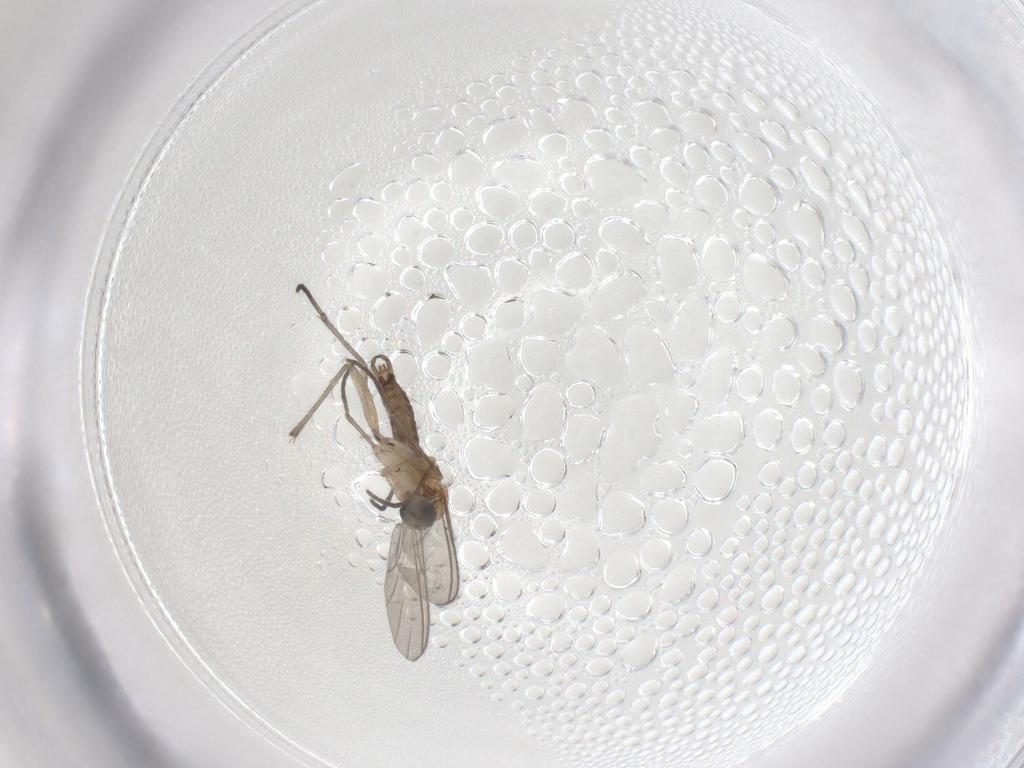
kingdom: Animalia
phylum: Arthropoda
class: Insecta
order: Diptera
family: Sciaridae
